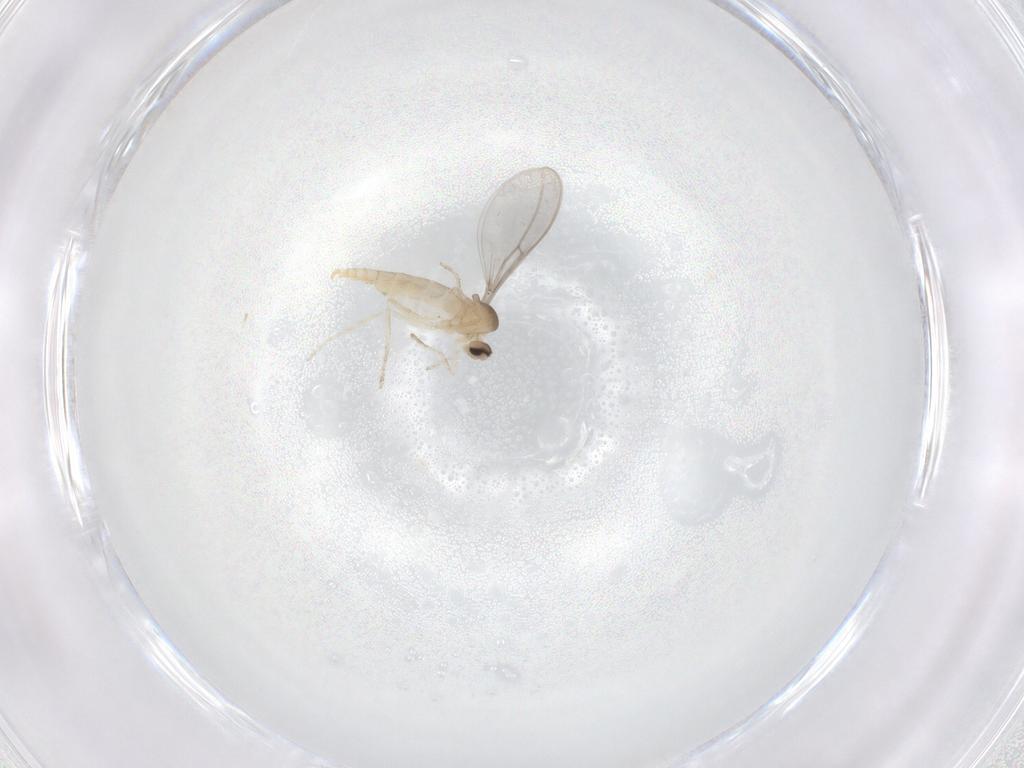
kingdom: Animalia
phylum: Arthropoda
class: Insecta
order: Diptera
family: Cecidomyiidae
